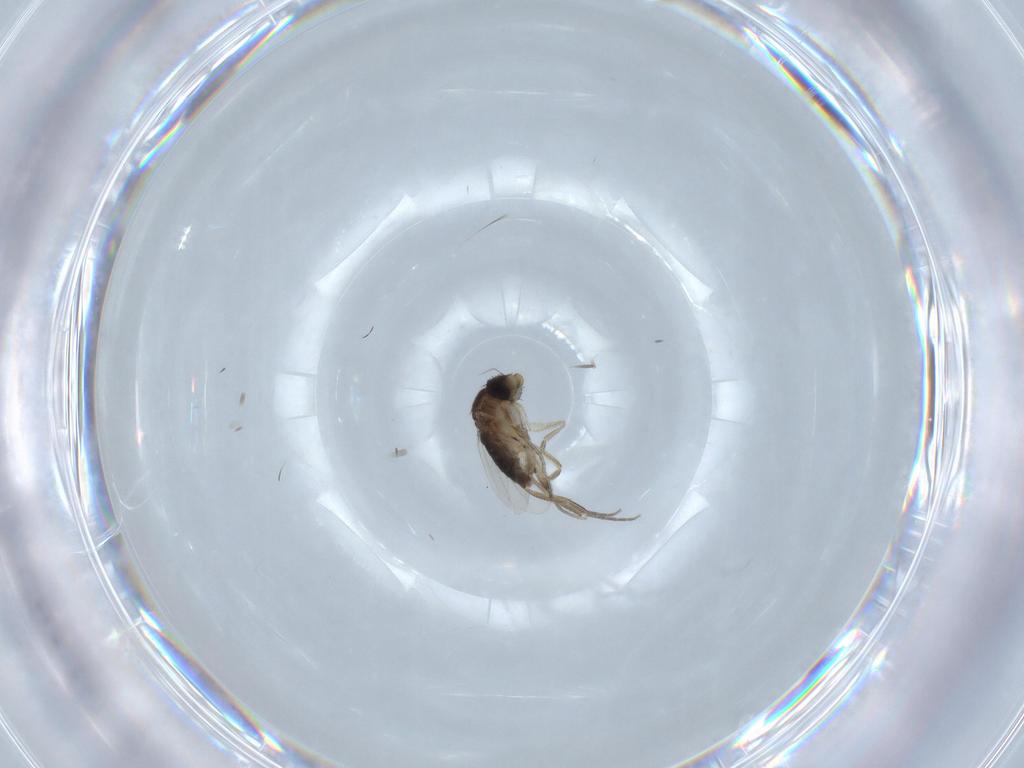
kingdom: Animalia
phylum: Arthropoda
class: Insecta
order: Diptera
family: Phoridae
